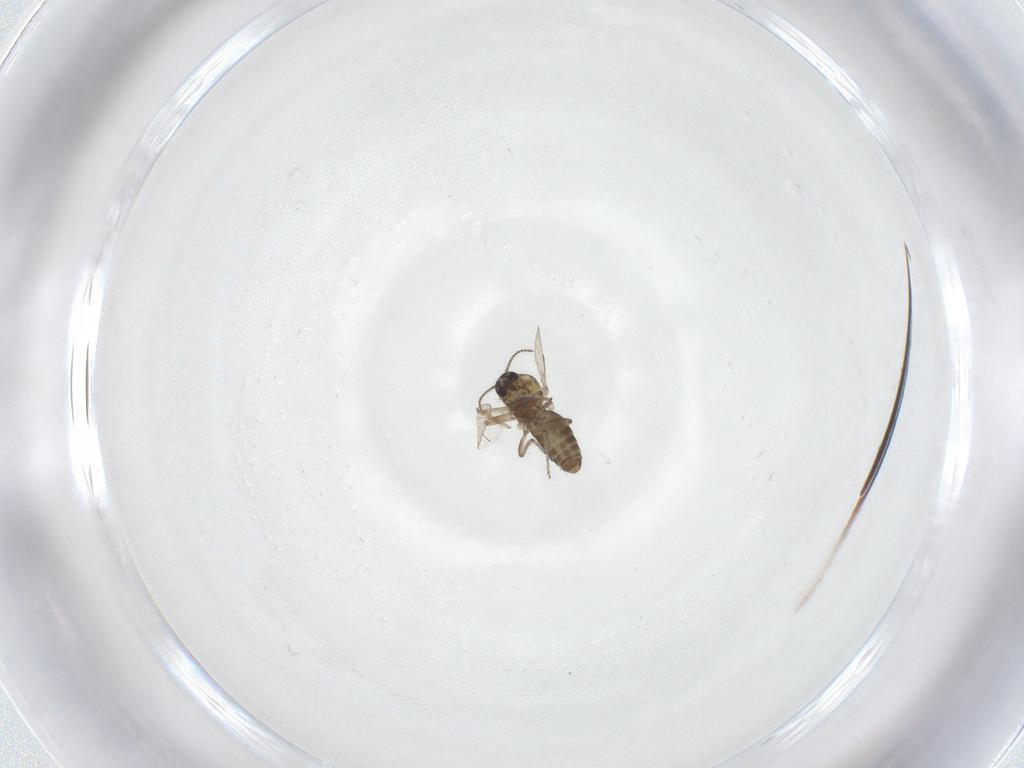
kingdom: Animalia
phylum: Arthropoda
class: Insecta
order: Diptera
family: Ceratopogonidae
